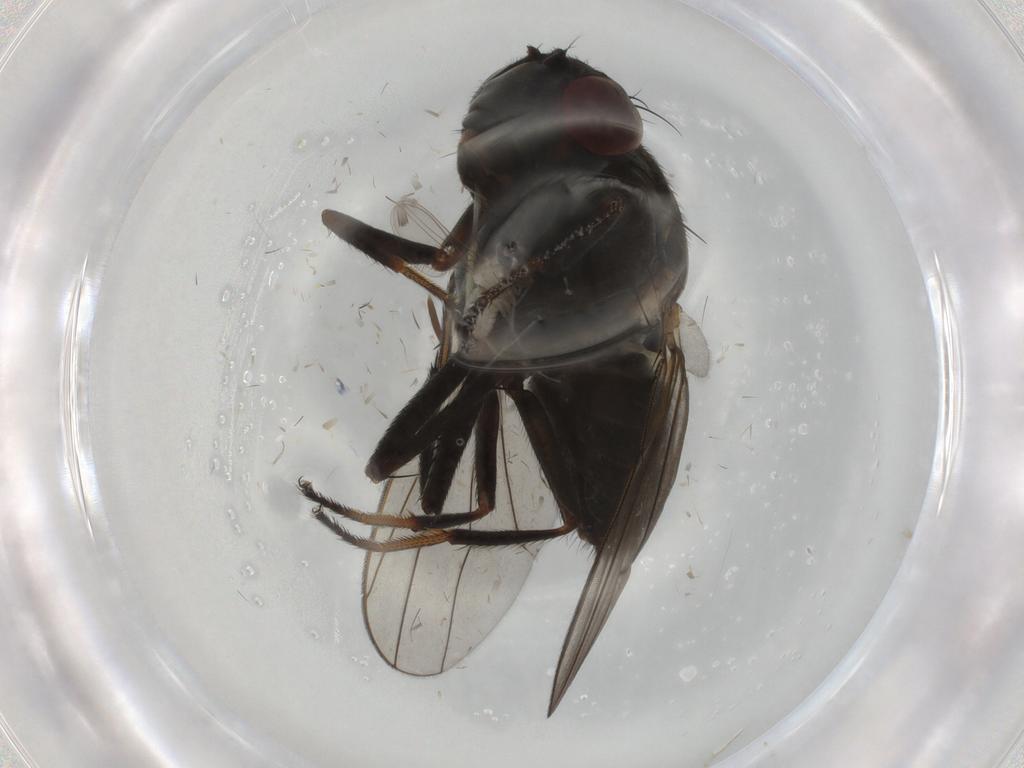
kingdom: Animalia
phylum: Arthropoda
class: Insecta
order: Diptera
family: Ephydridae
